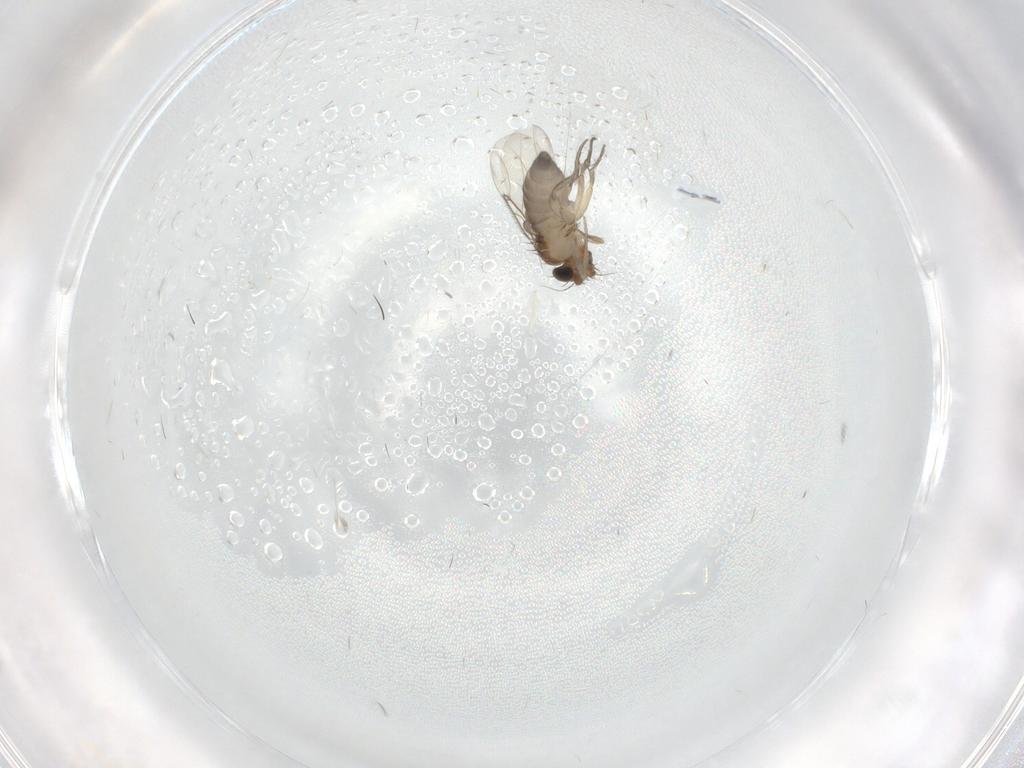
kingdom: Animalia
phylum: Arthropoda
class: Insecta
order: Diptera
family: Phoridae
